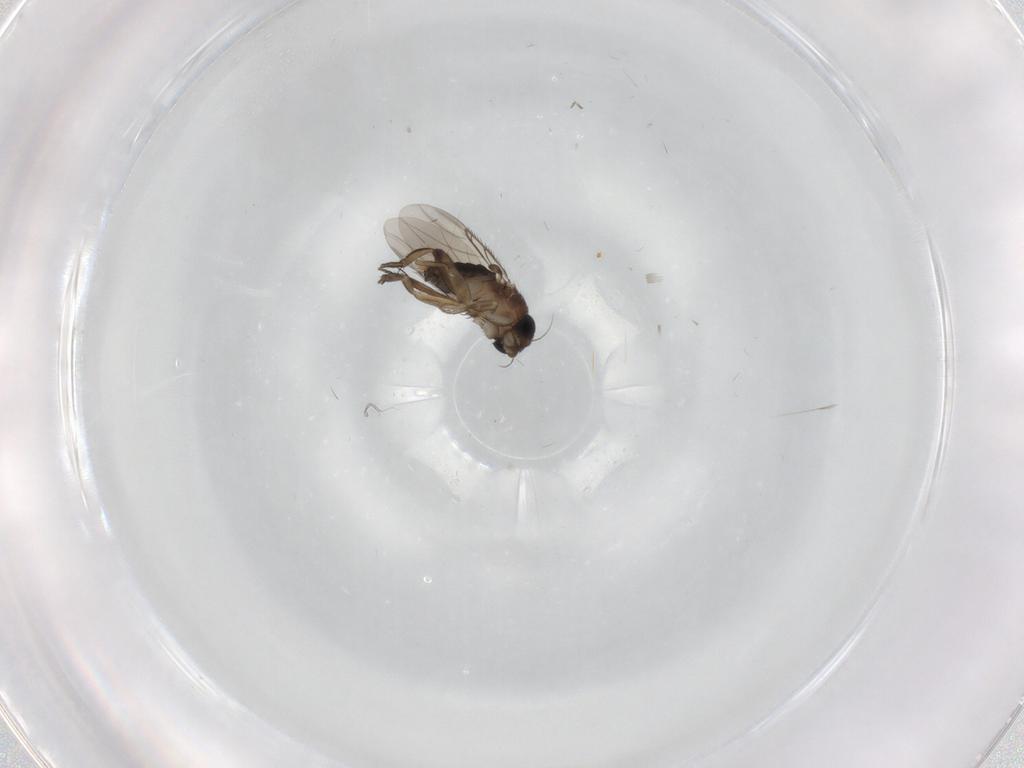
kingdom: Animalia
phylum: Arthropoda
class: Insecta
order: Diptera
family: Phoridae
